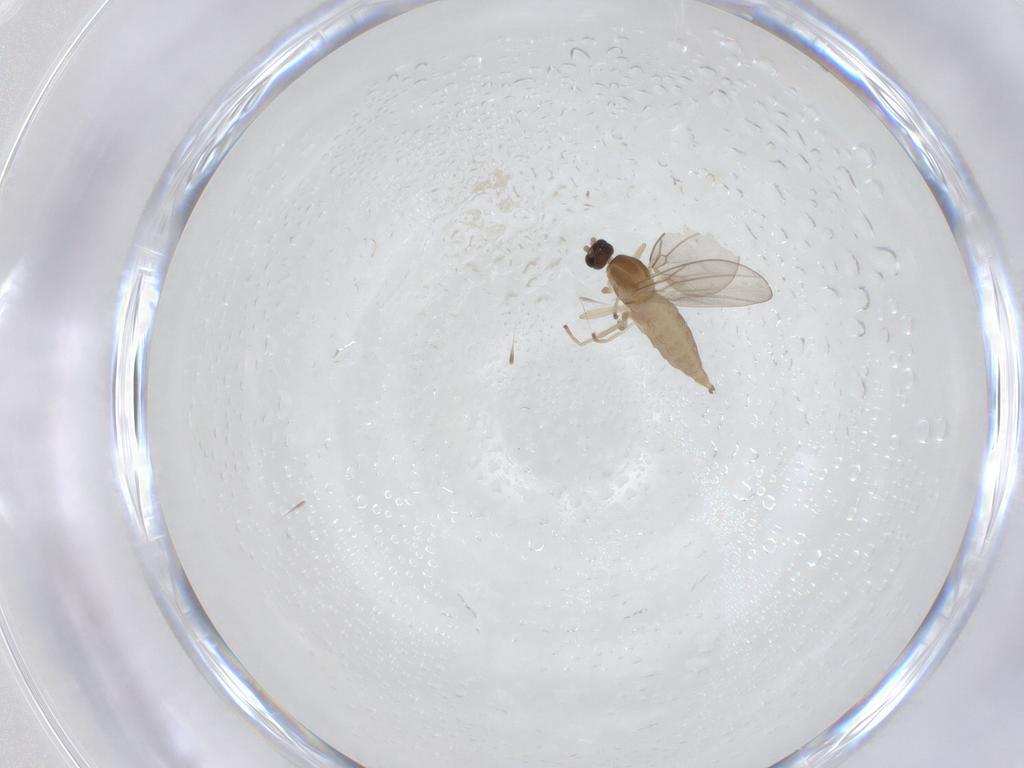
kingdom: Animalia
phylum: Arthropoda
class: Insecta
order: Diptera
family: Cecidomyiidae
